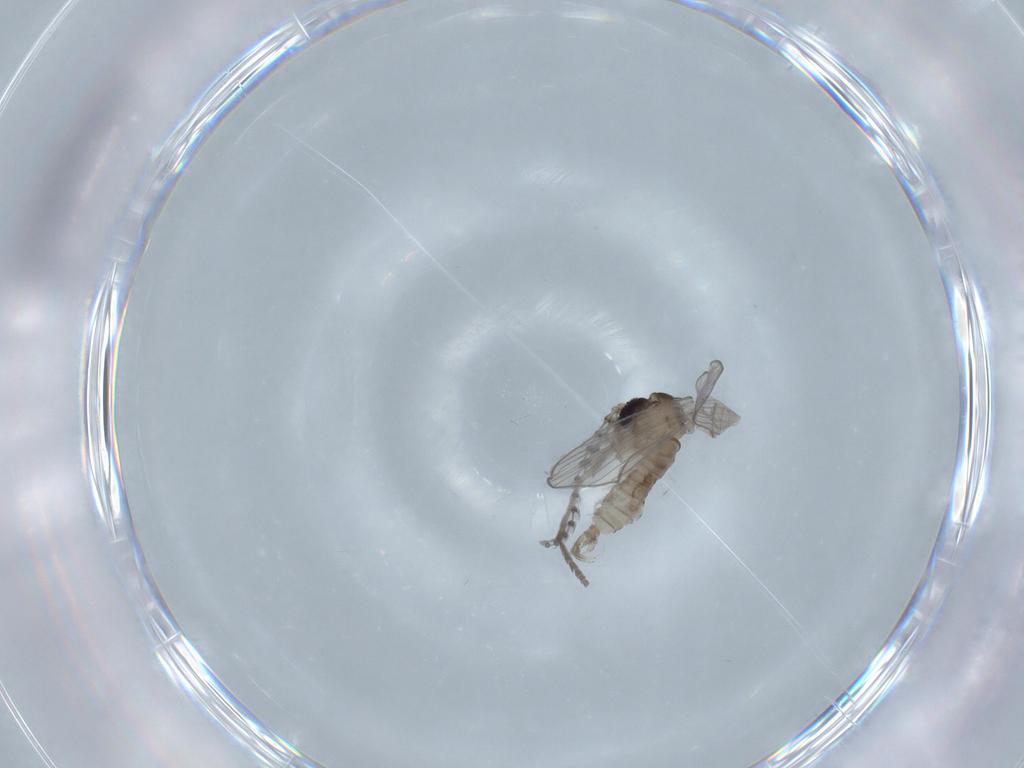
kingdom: Animalia
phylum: Arthropoda
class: Insecta
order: Diptera
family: Psychodidae
